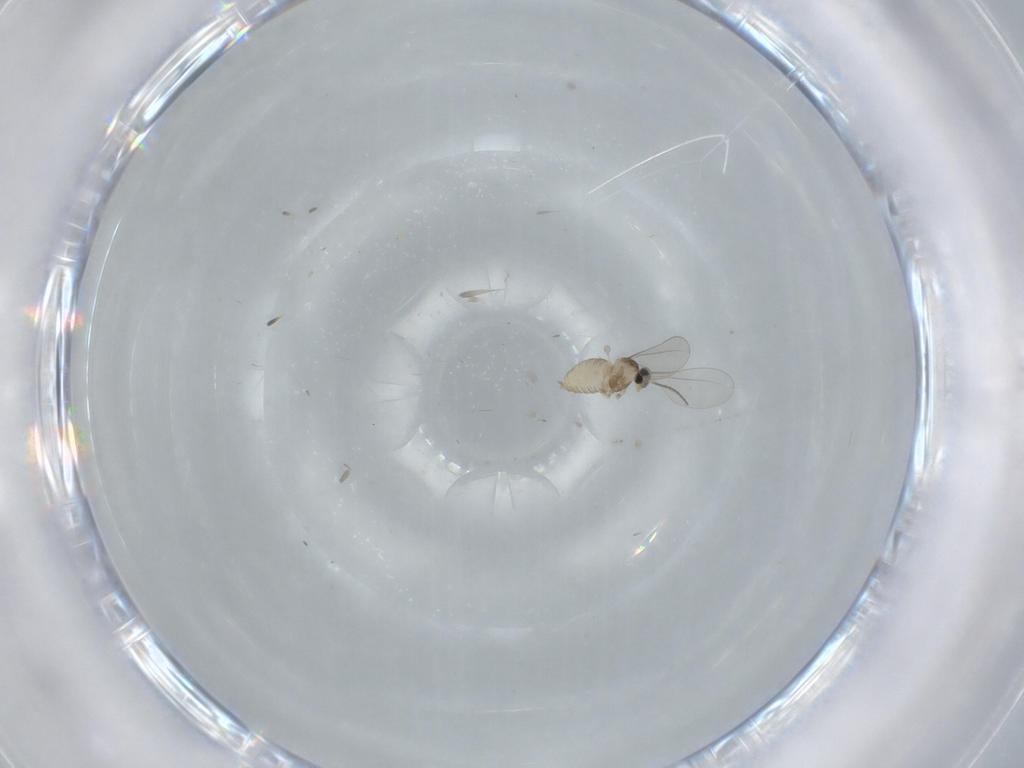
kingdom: Animalia
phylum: Arthropoda
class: Insecta
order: Diptera
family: Cecidomyiidae
